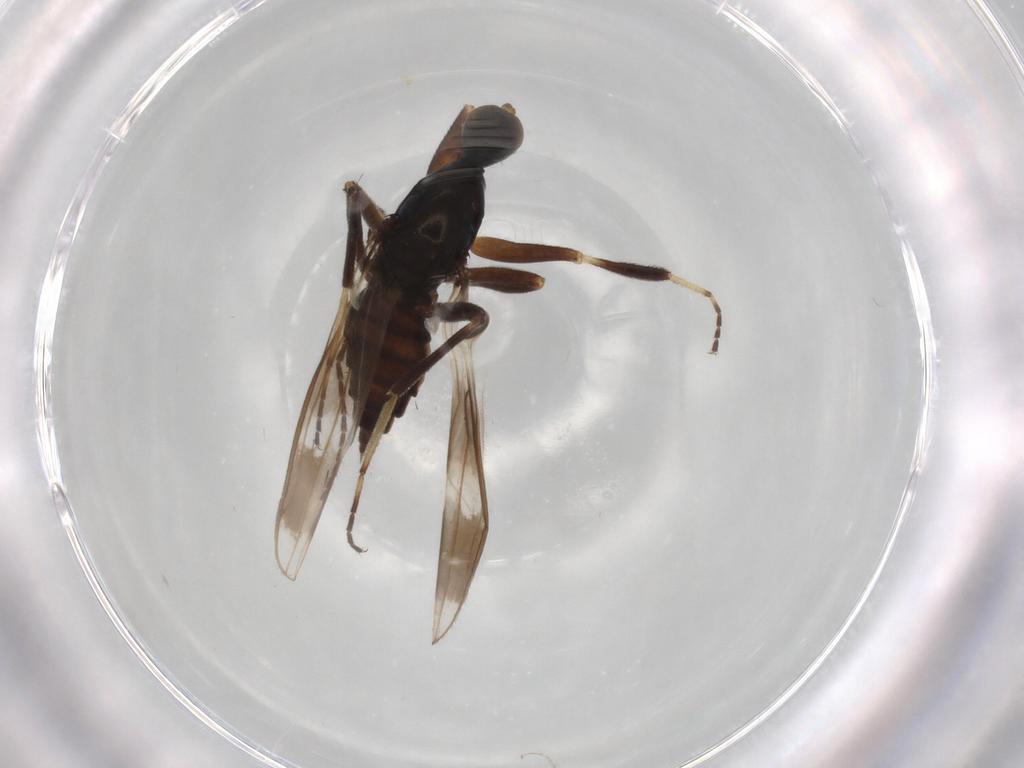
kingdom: Animalia
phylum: Arthropoda
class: Insecta
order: Diptera
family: Hybotidae
